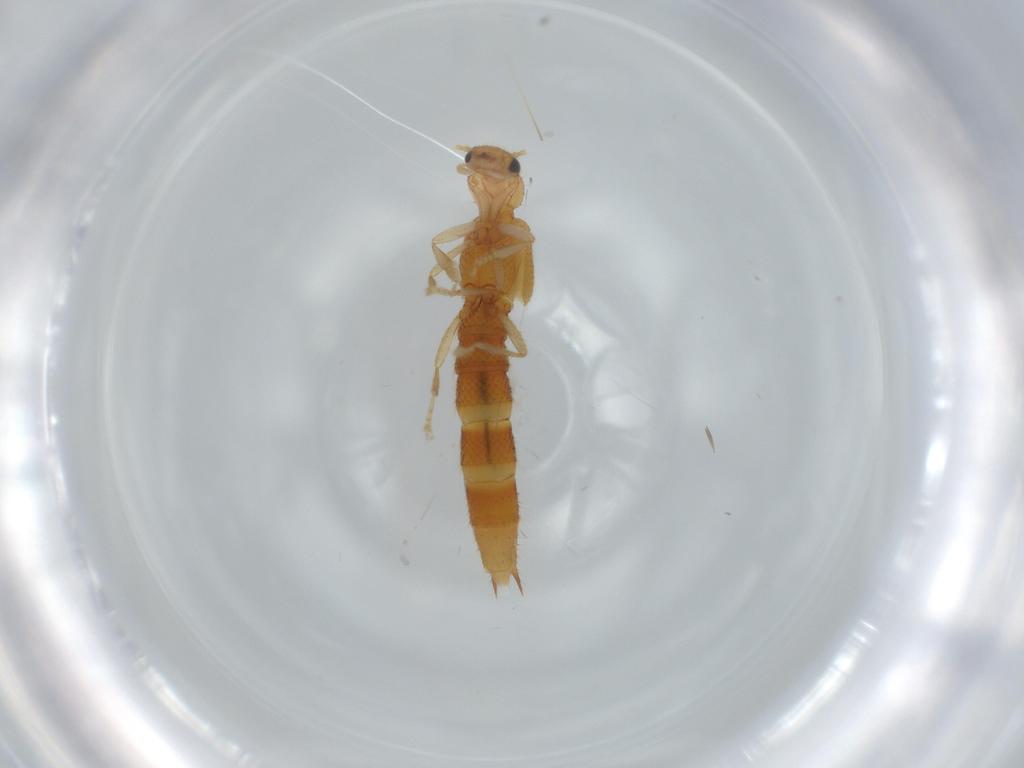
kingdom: Animalia
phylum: Arthropoda
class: Insecta
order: Coleoptera
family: Staphylinidae
